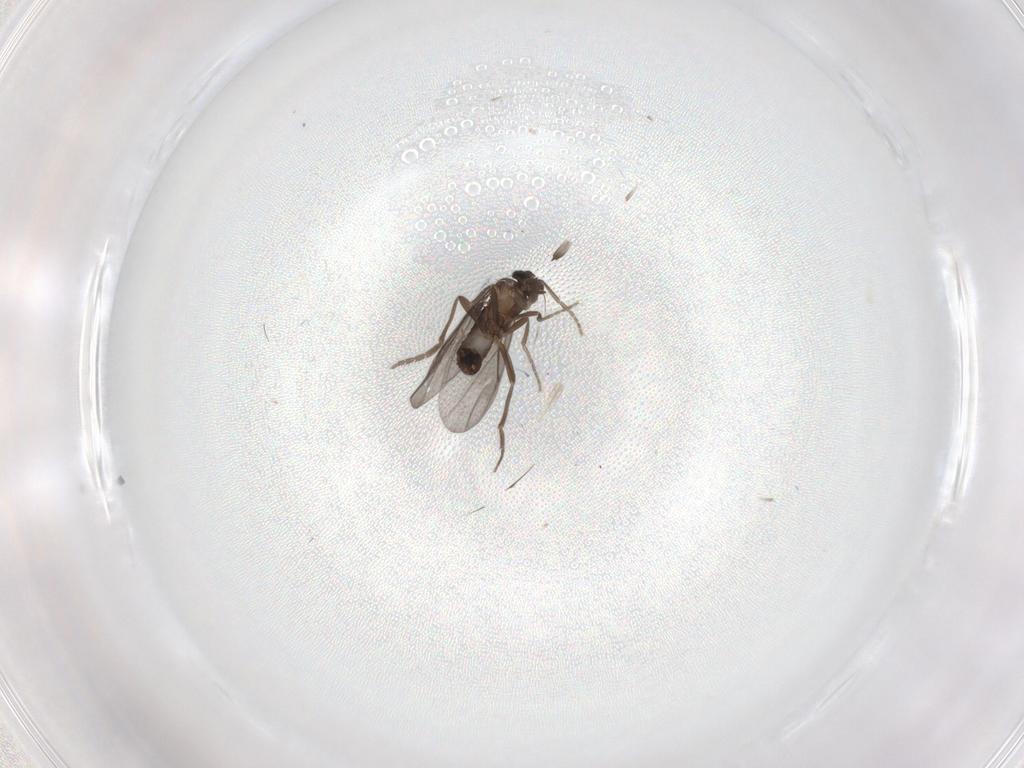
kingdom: Animalia
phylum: Arthropoda
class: Insecta
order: Diptera
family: Phoridae
